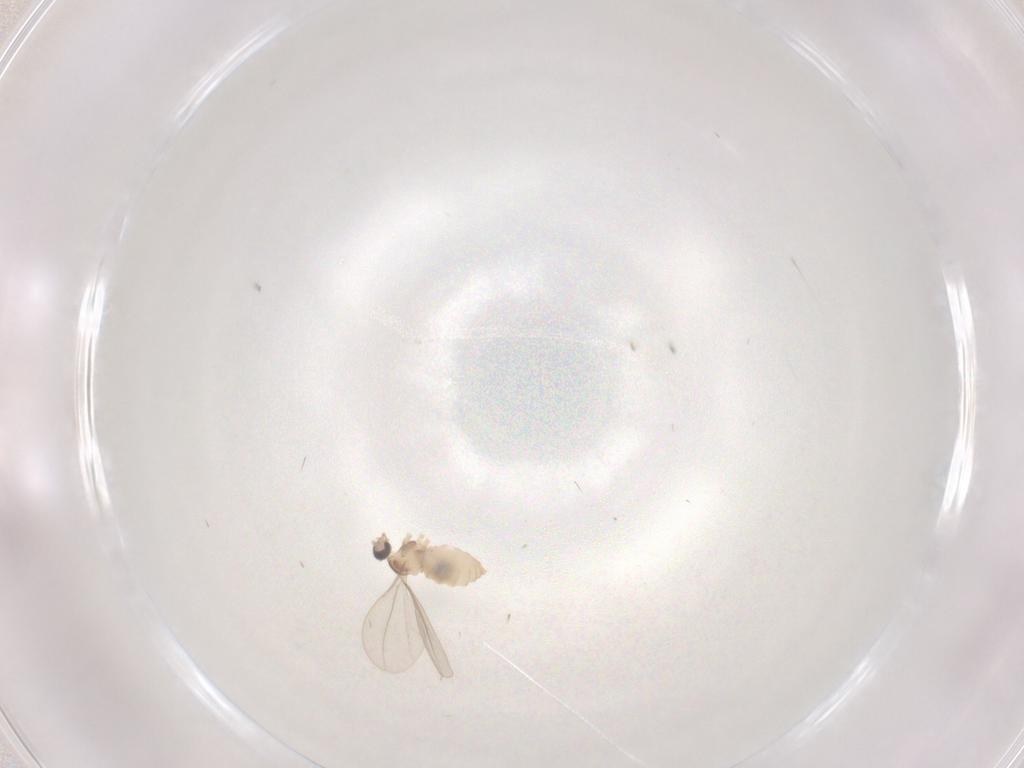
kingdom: Animalia
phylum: Arthropoda
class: Insecta
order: Diptera
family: Cecidomyiidae
